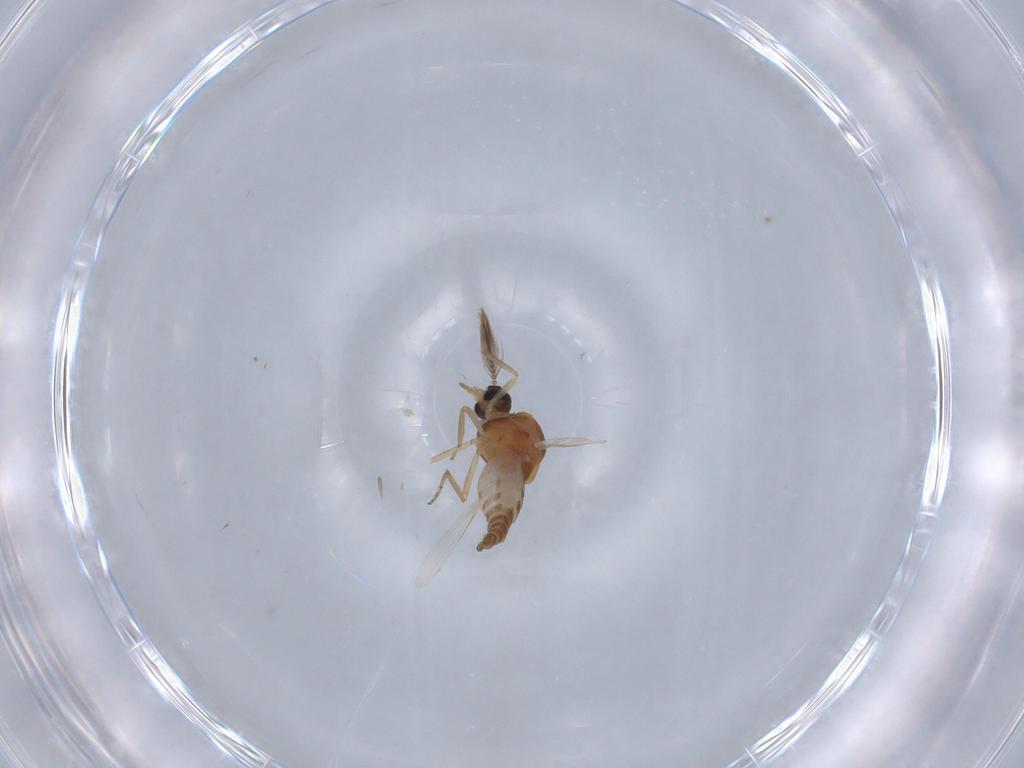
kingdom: Animalia
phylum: Arthropoda
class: Insecta
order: Diptera
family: Ceratopogonidae
